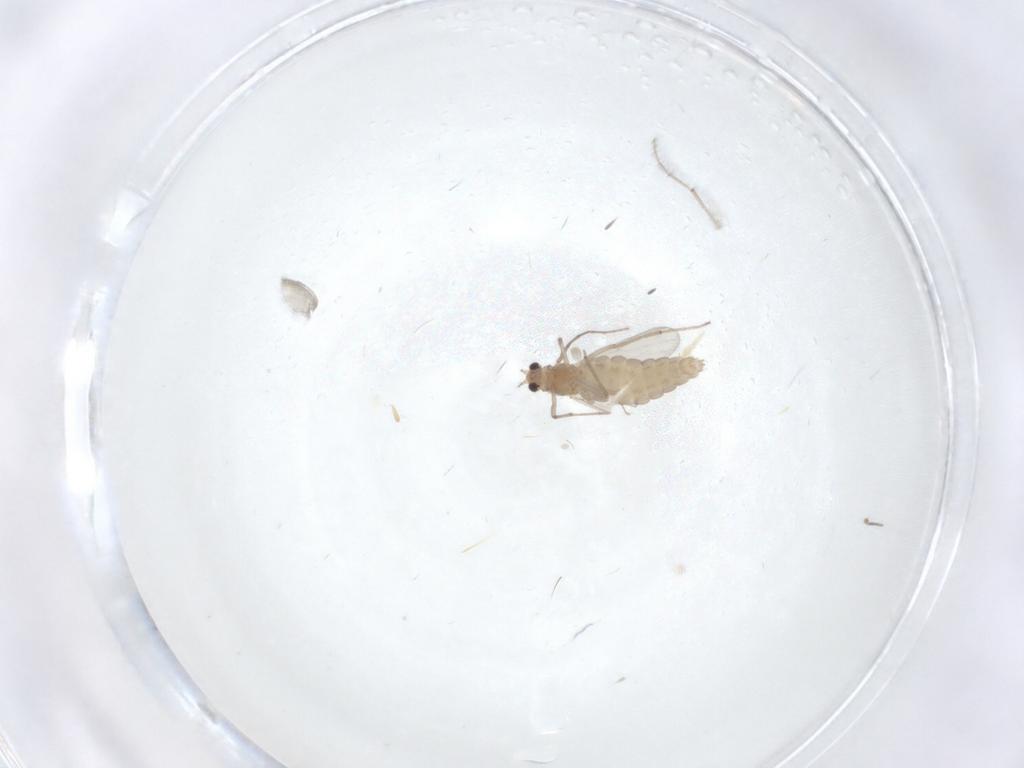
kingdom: Animalia
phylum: Arthropoda
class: Insecta
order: Diptera
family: Chironomidae
